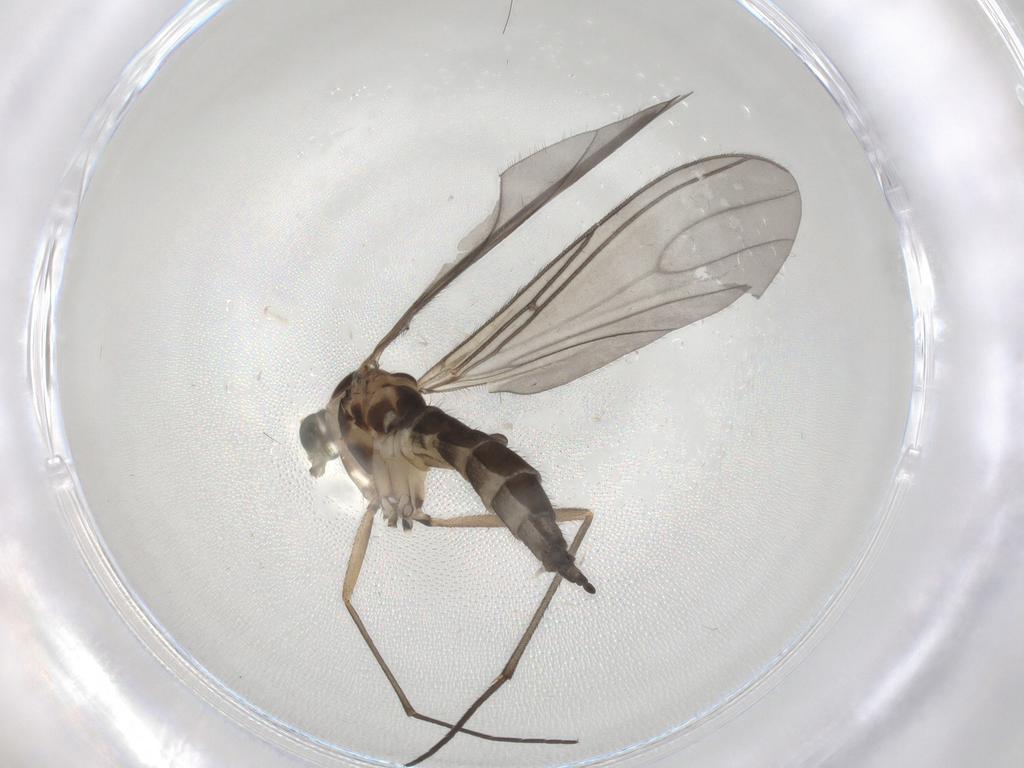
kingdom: Animalia
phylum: Arthropoda
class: Insecta
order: Diptera
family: Sciaridae
